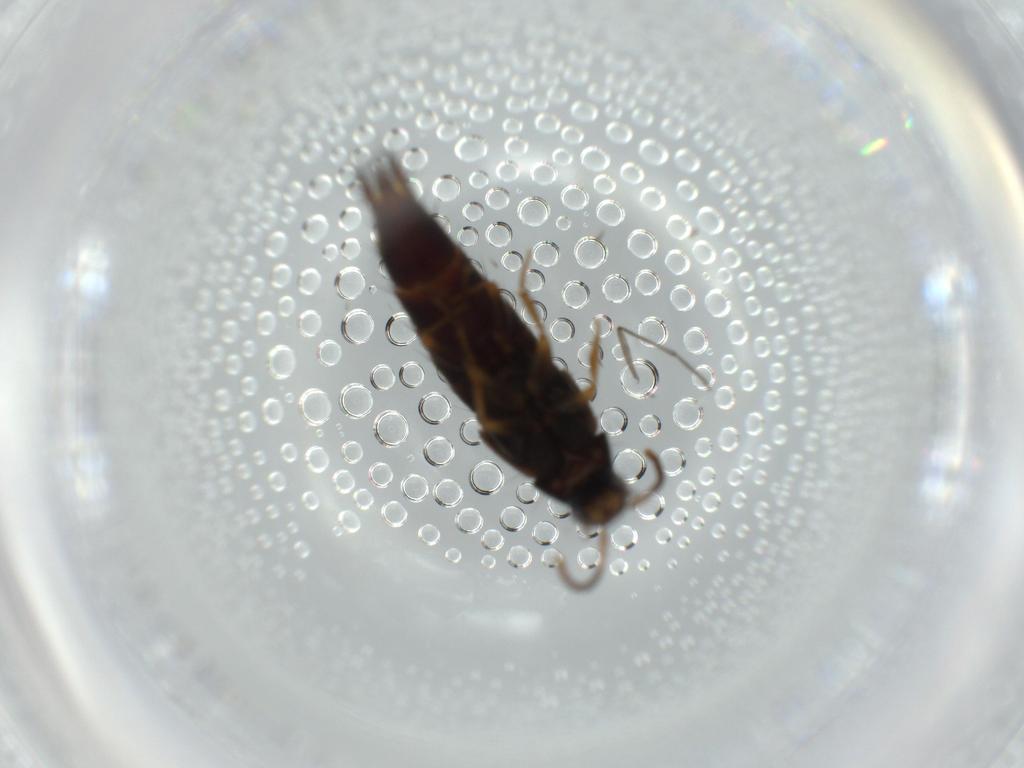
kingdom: Animalia
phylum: Arthropoda
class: Insecta
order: Coleoptera
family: Staphylinidae
